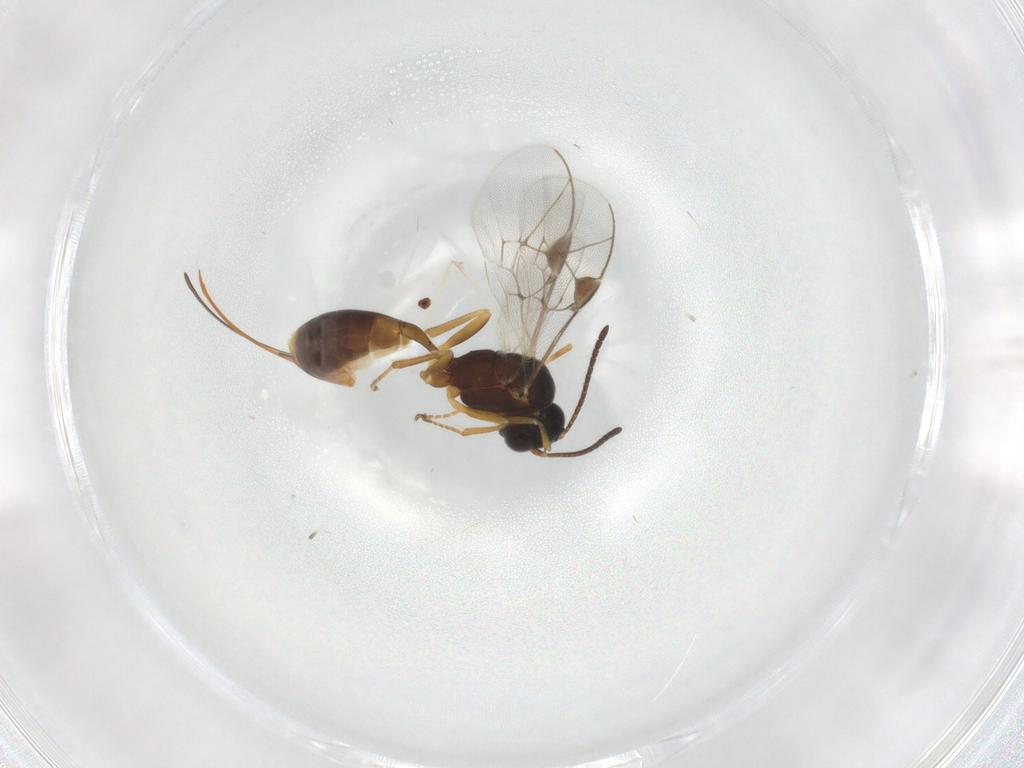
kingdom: Animalia
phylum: Arthropoda
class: Insecta
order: Hymenoptera
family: Ichneumonidae
